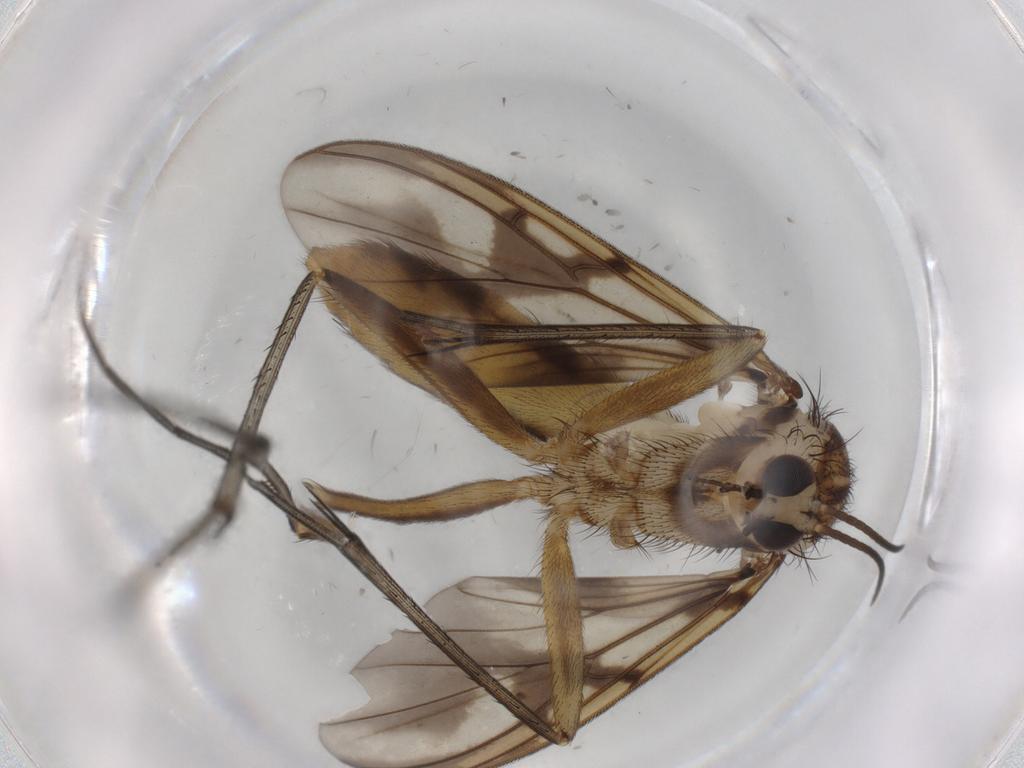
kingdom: Animalia
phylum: Arthropoda
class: Insecta
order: Diptera
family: Mycetophilidae
